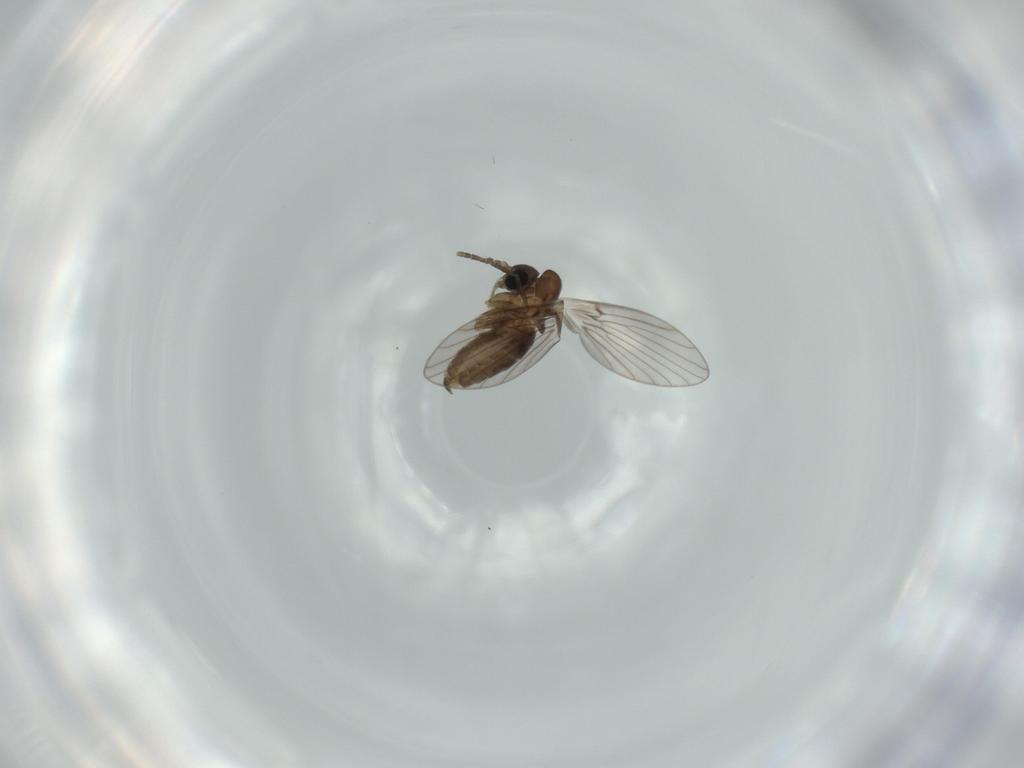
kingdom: Animalia
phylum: Arthropoda
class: Insecta
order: Diptera
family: Psychodidae
